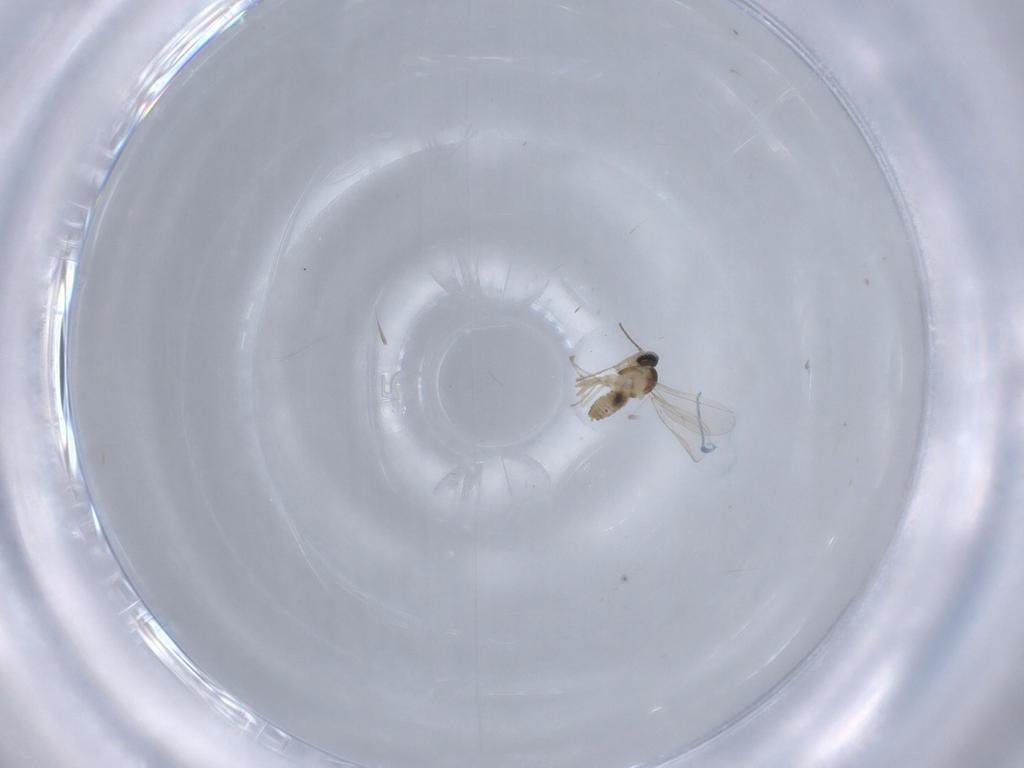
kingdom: Animalia
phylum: Arthropoda
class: Insecta
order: Diptera
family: Cecidomyiidae
